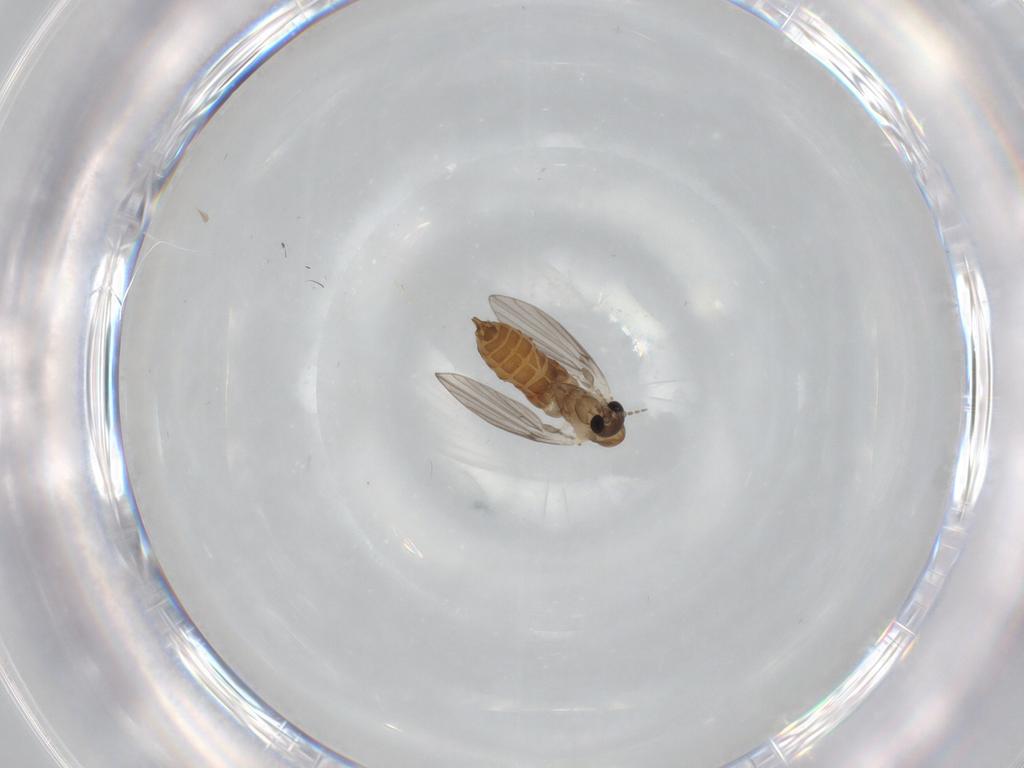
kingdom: Animalia
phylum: Arthropoda
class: Insecta
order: Diptera
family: Psychodidae
